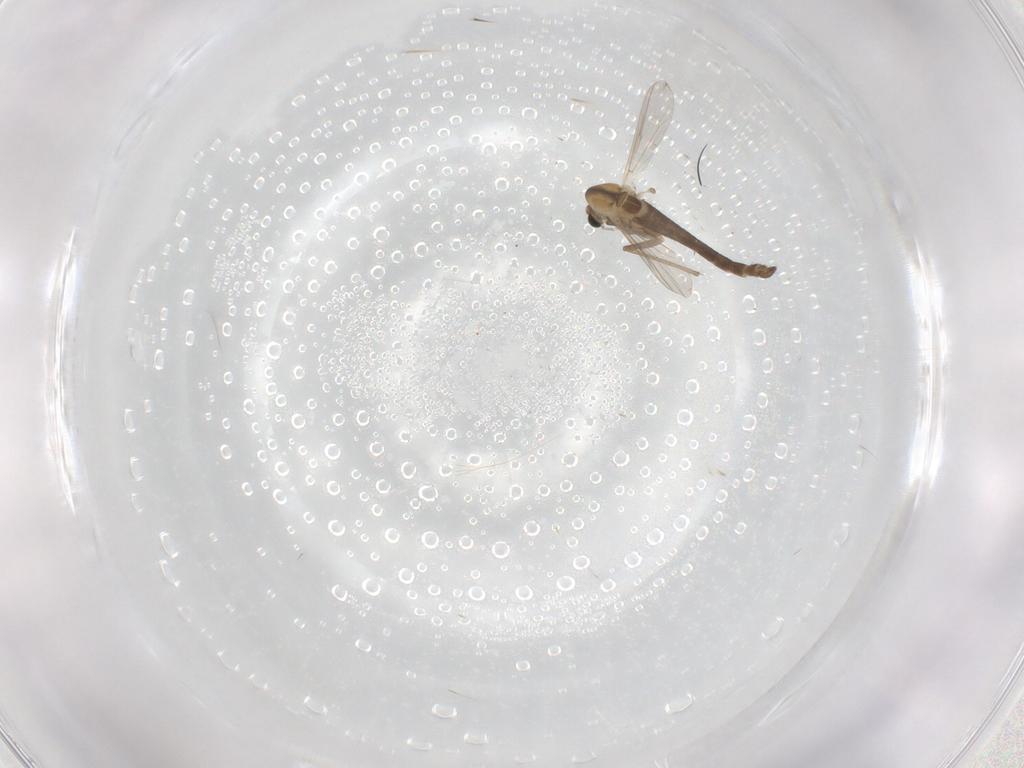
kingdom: Animalia
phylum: Arthropoda
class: Insecta
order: Diptera
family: Chironomidae
